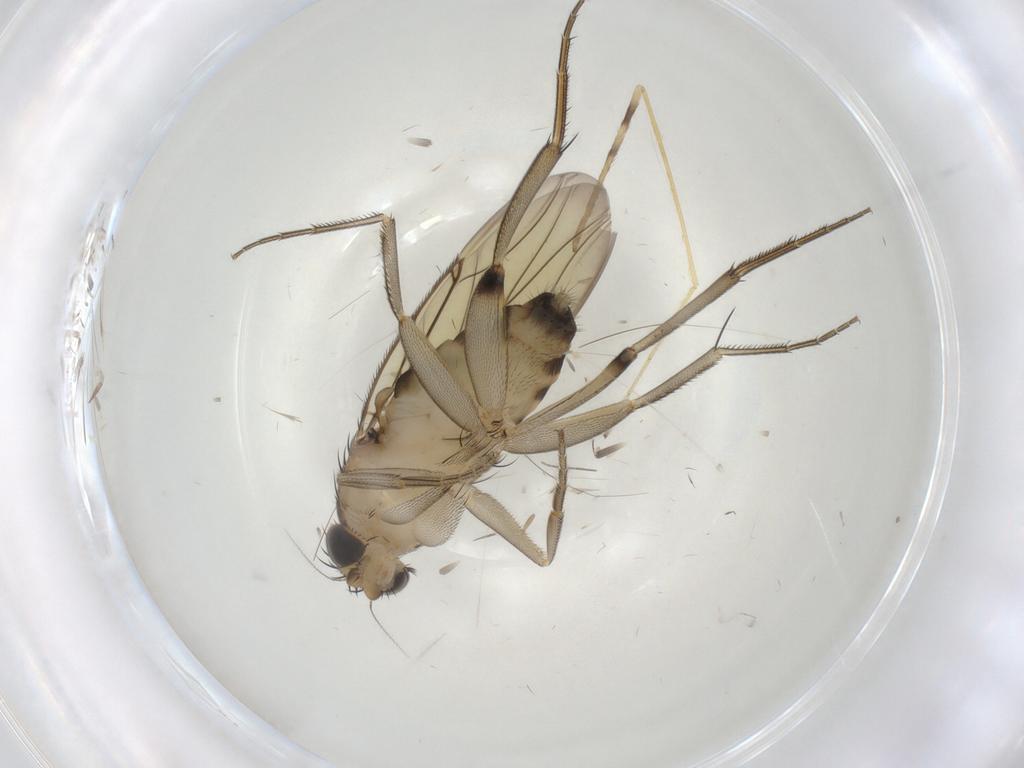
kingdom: Animalia
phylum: Arthropoda
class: Insecta
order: Diptera
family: Phoridae
